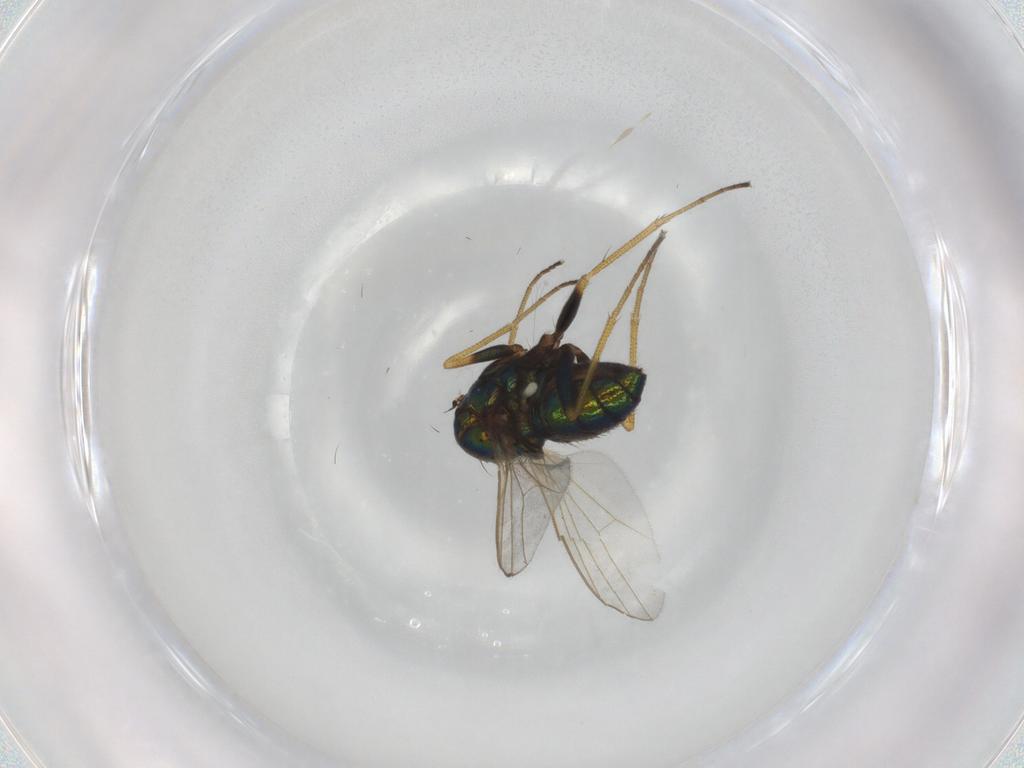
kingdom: Animalia
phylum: Arthropoda
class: Insecta
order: Diptera
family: Dolichopodidae
